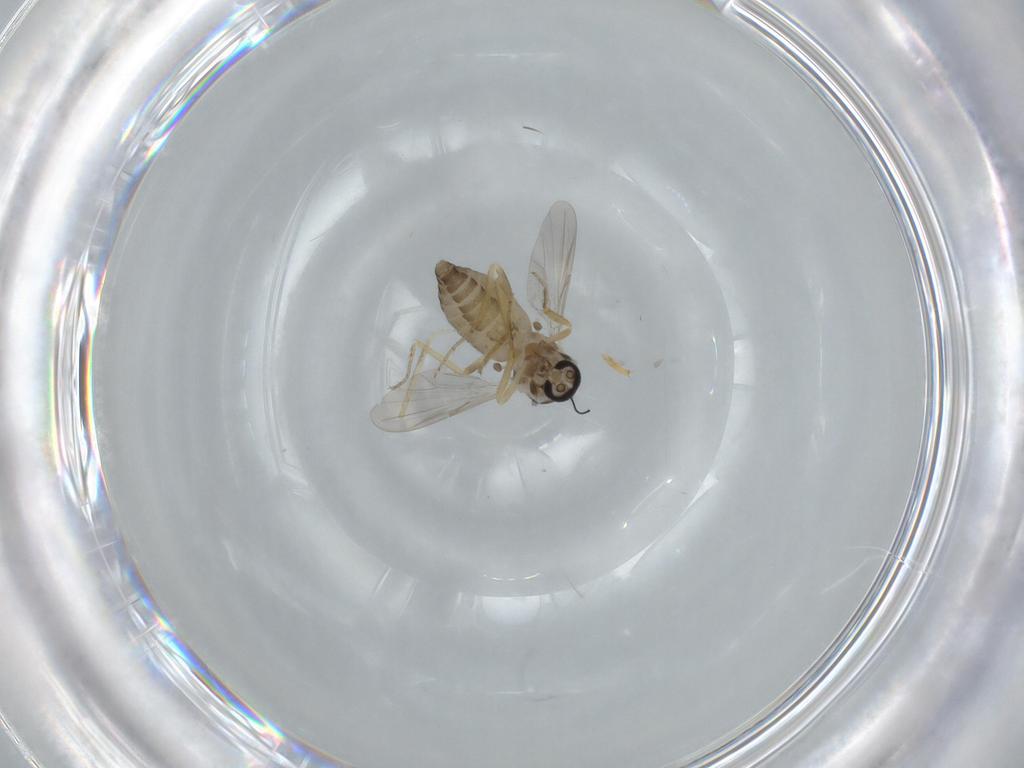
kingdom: Animalia
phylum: Arthropoda
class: Insecta
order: Diptera
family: Ceratopogonidae
